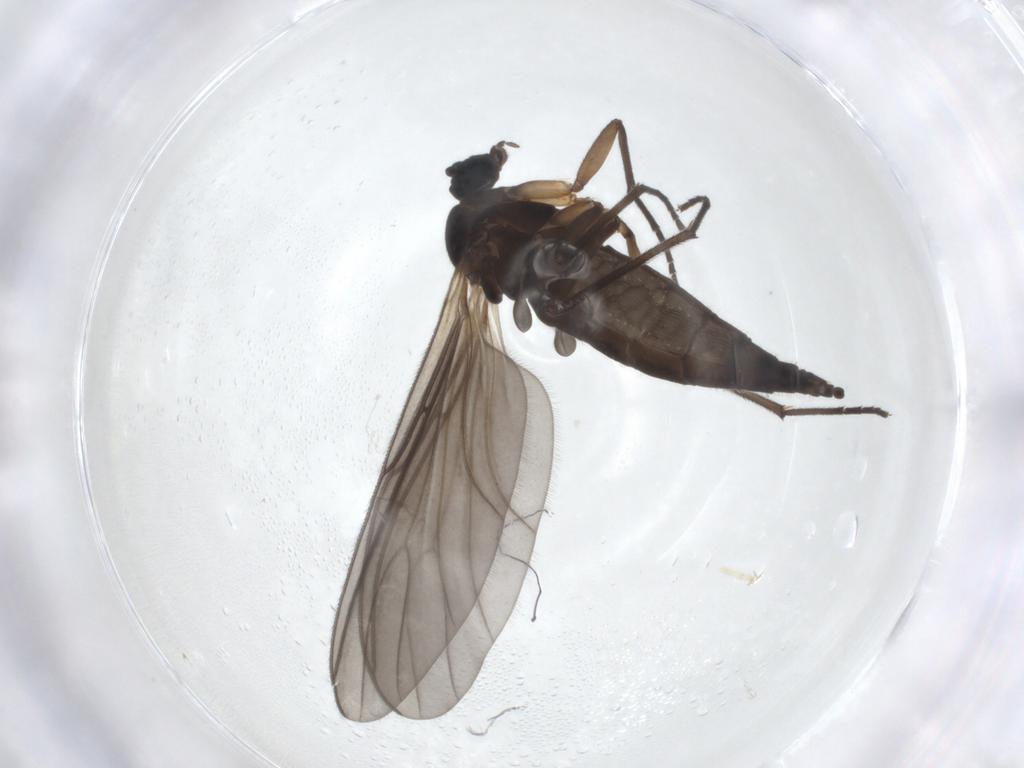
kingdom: Animalia
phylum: Arthropoda
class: Insecta
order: Diptera
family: Sciaridae
